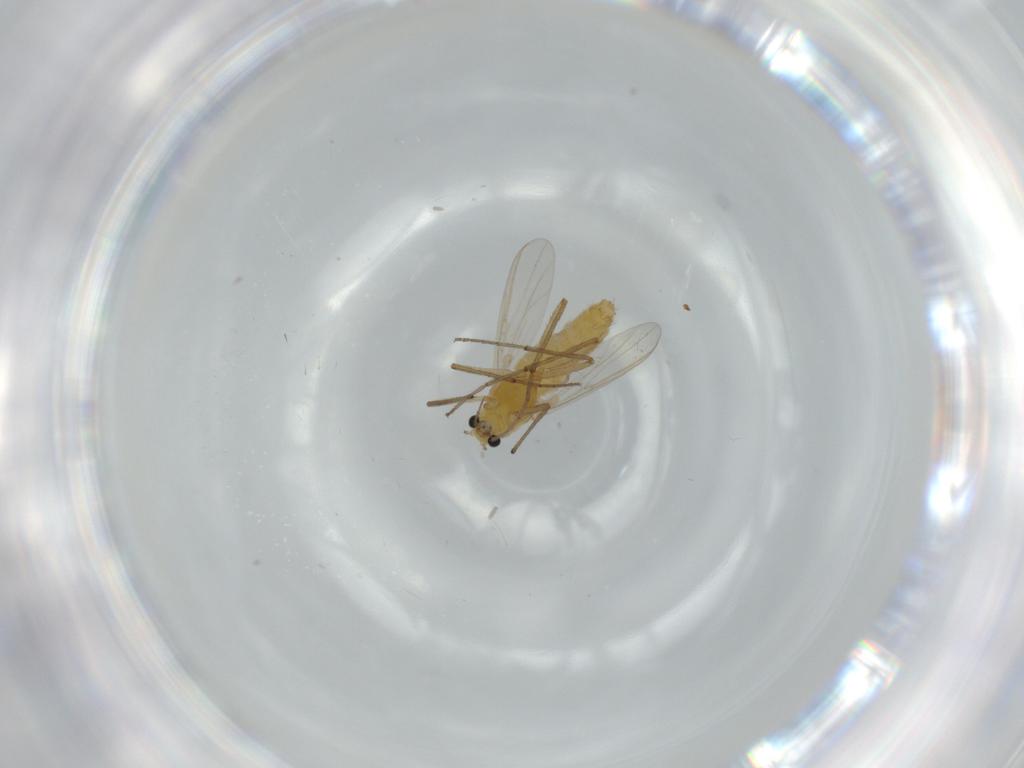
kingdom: Animalia
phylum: Arthropoda
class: Insecta
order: Diptera
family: Chironomidae
